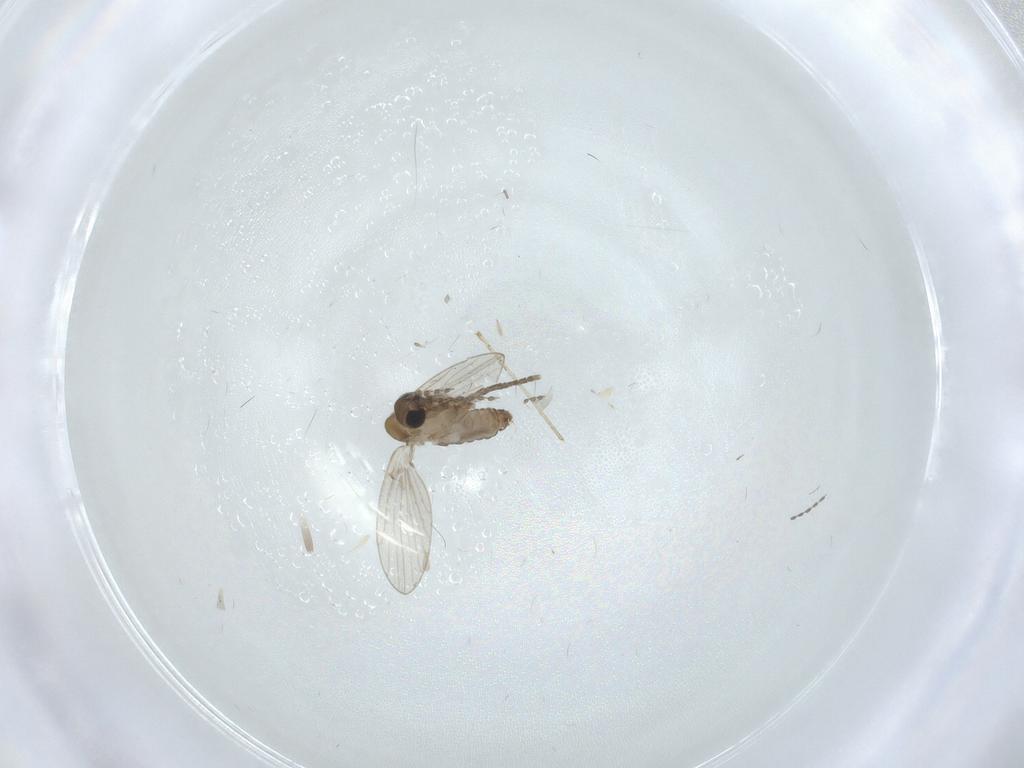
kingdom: Animalia
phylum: Arthropoda
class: Insecta
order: Diptera
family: Psychodidae
